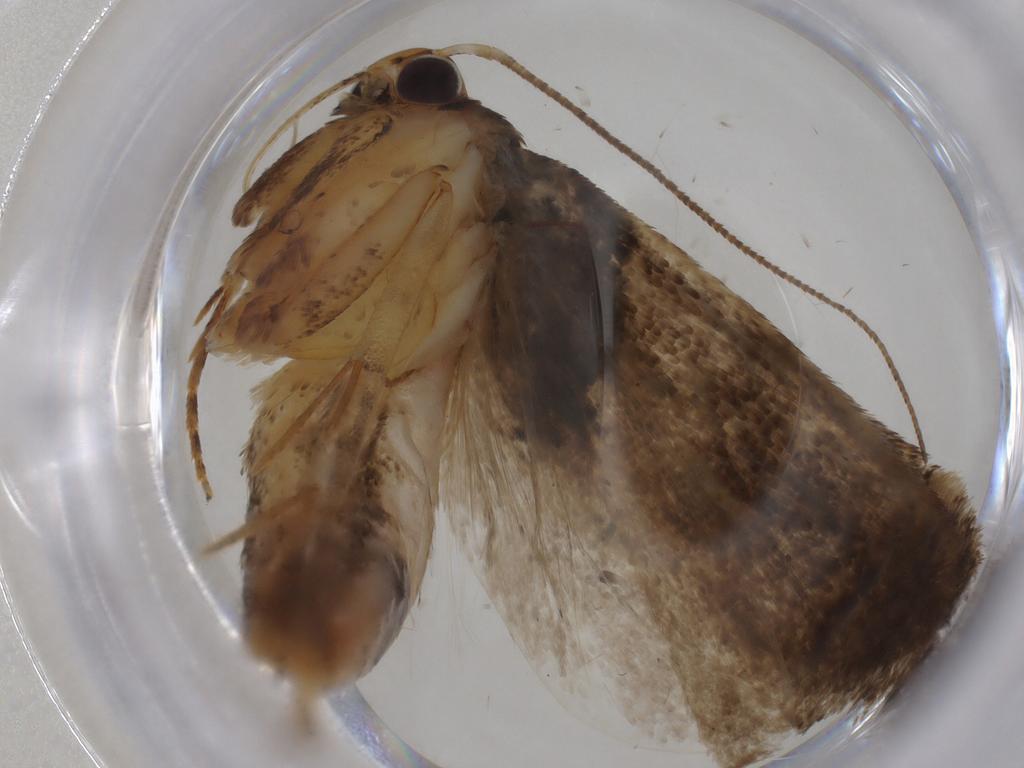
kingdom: Animalia
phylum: Arthropoda
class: Insecta
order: Lepidoptera
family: Gelechiidae
